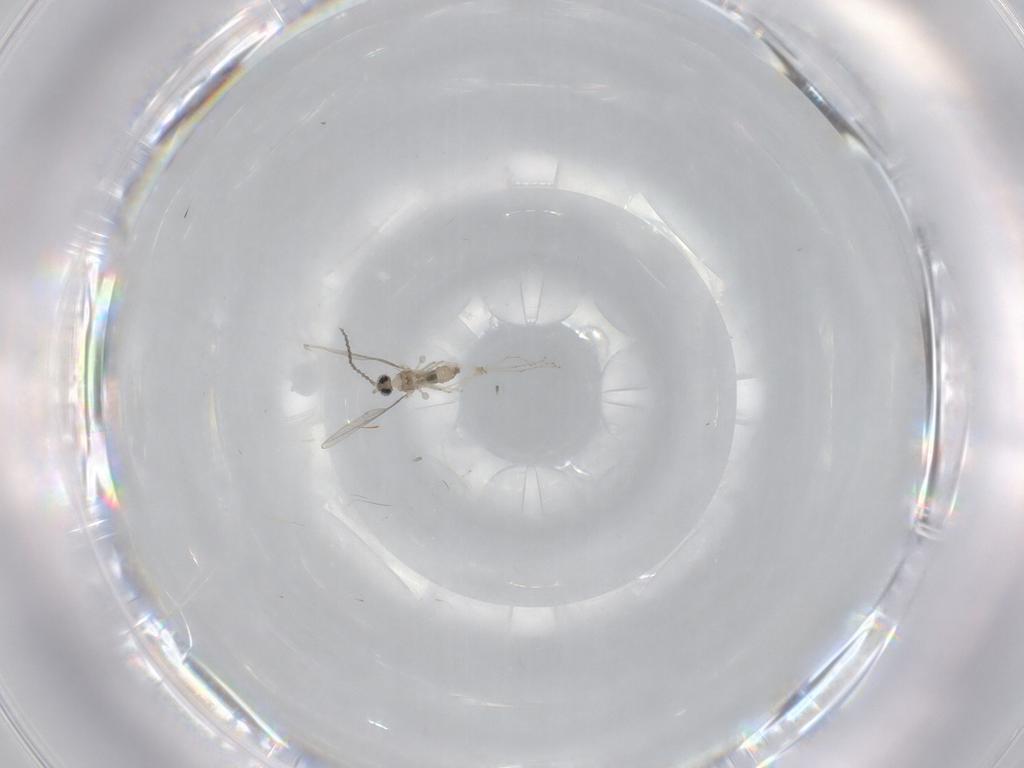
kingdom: Animalia
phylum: Arthropoda
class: Insecta
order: Diptera
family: Cecidomyiidae
